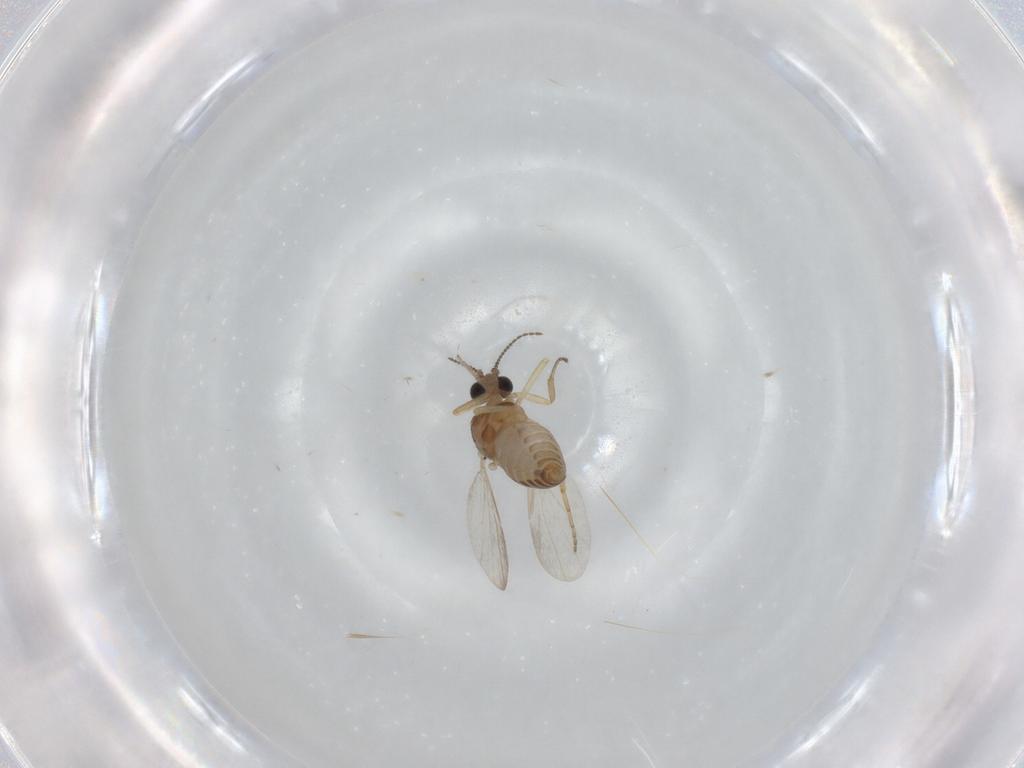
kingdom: Animalia
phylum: Arthropoda
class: Insecta
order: Diptera
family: Ceratopogonidae
